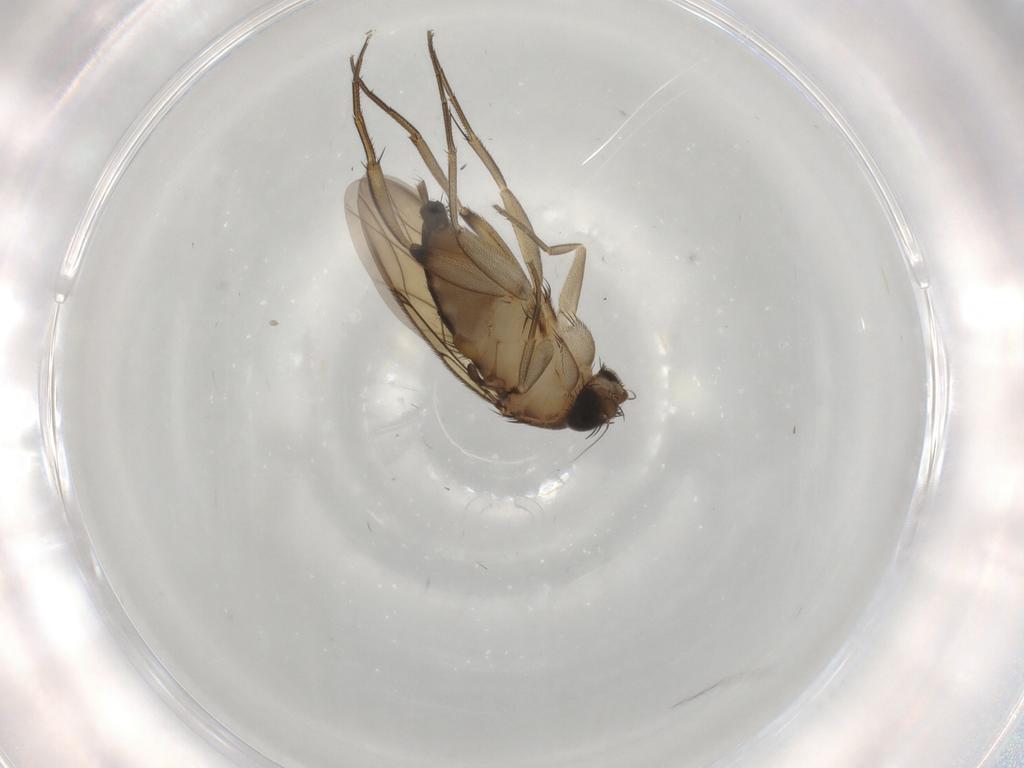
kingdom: Animalia
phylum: Arthropoda
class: Insecta
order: Diptera
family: Phoridae
